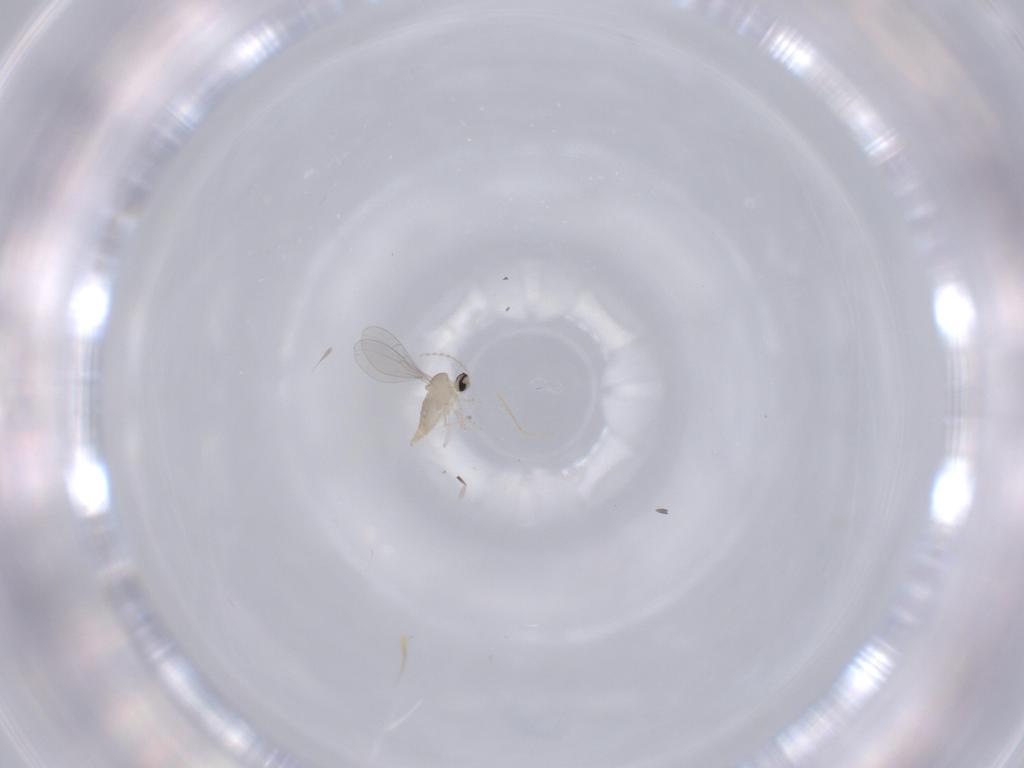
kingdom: Animalia
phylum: Arthropoda
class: Insecta
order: Diptera
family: Cecidomyiidae
